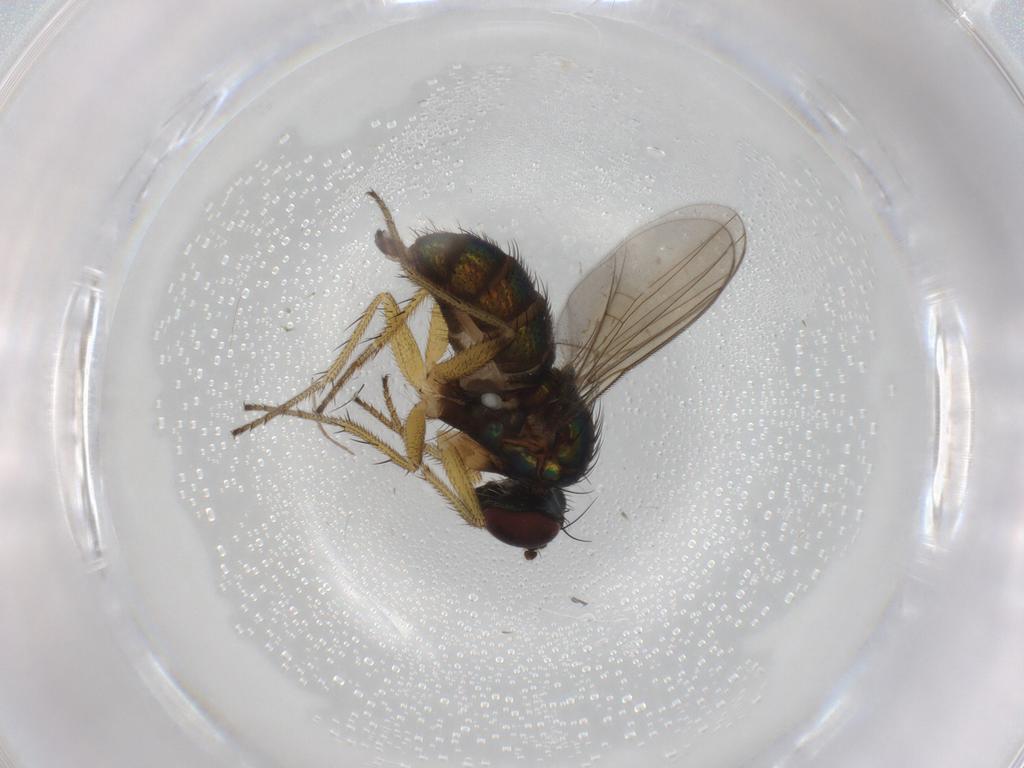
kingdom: Animalia
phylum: Arthropoda
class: Insecta
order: Diptera
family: Dolichopodidae
